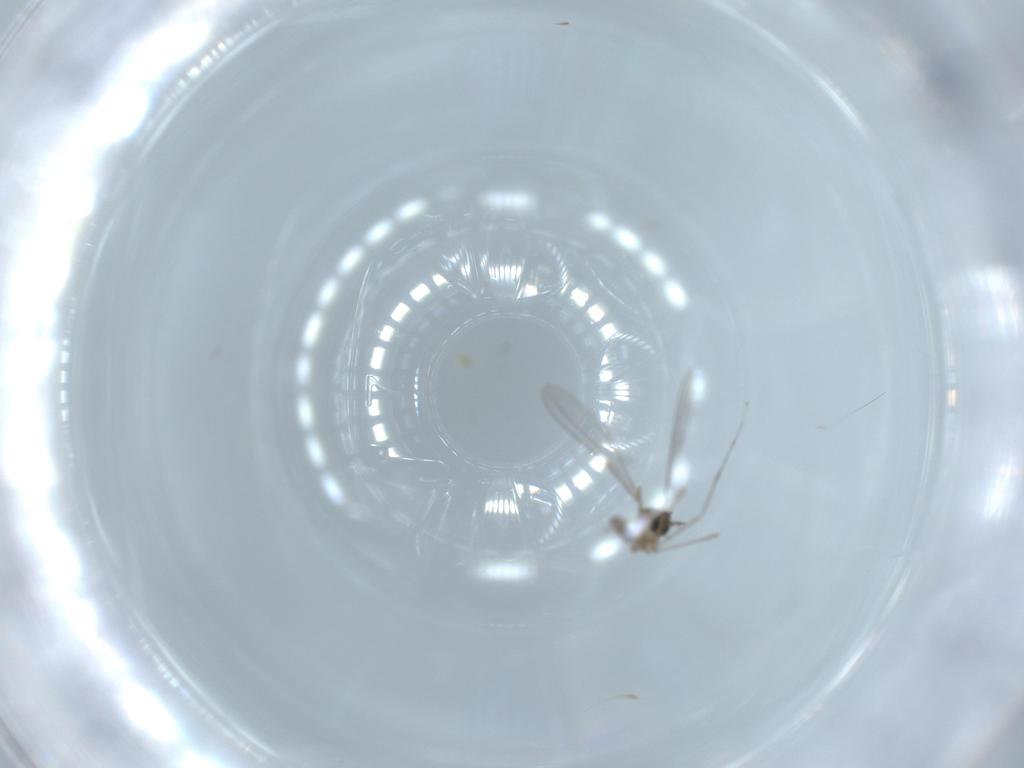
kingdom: Animalia
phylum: Arthropoda
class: Insecta
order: Diptera
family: Cecidomyiidae
